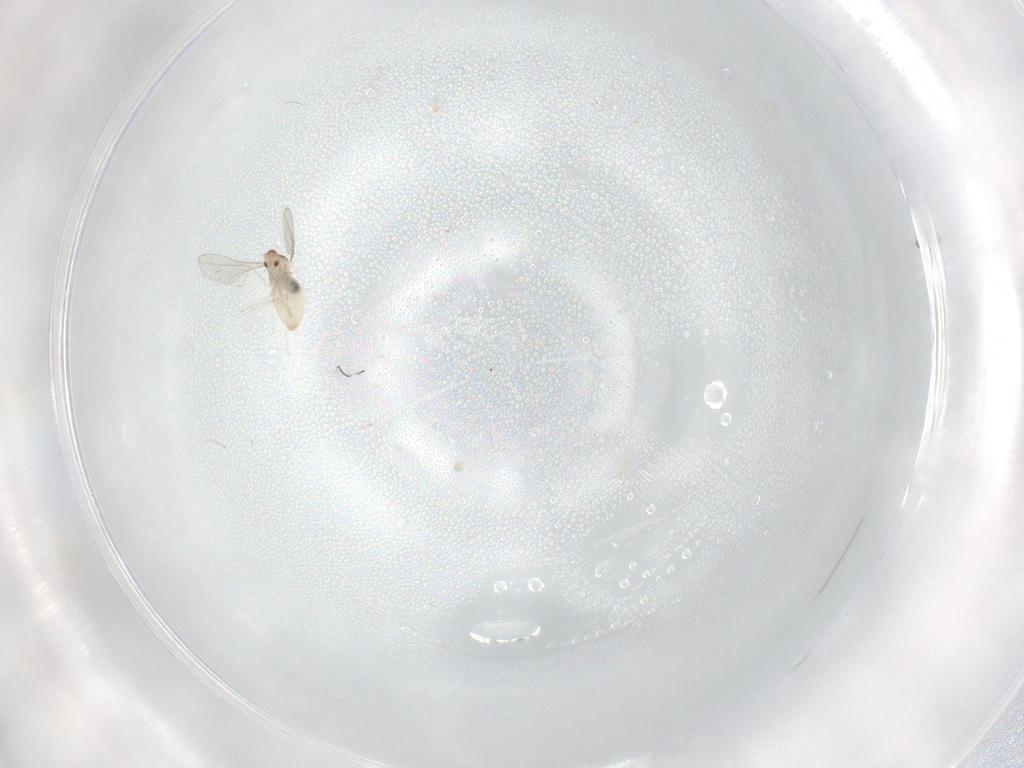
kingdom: Animalia
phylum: Arthropoda
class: Insecta
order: Diptera
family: Cecidomyiidae
